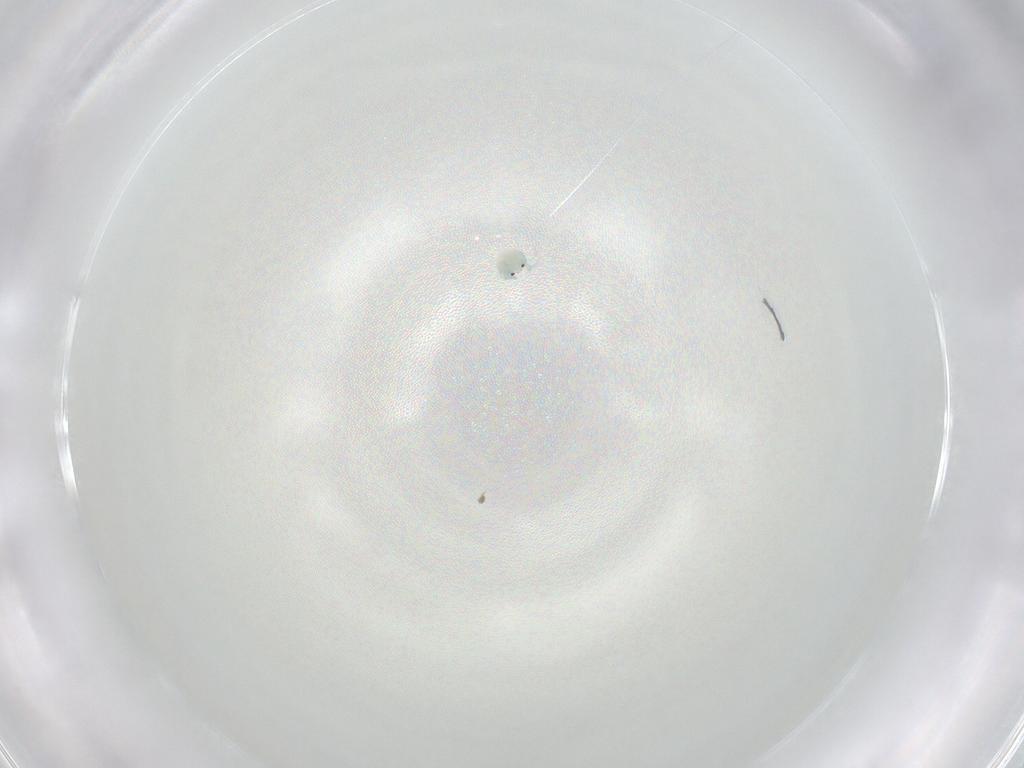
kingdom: Animalia
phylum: Arthropoda
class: Arachnida
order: Trombidiformes
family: Arrenuridae
